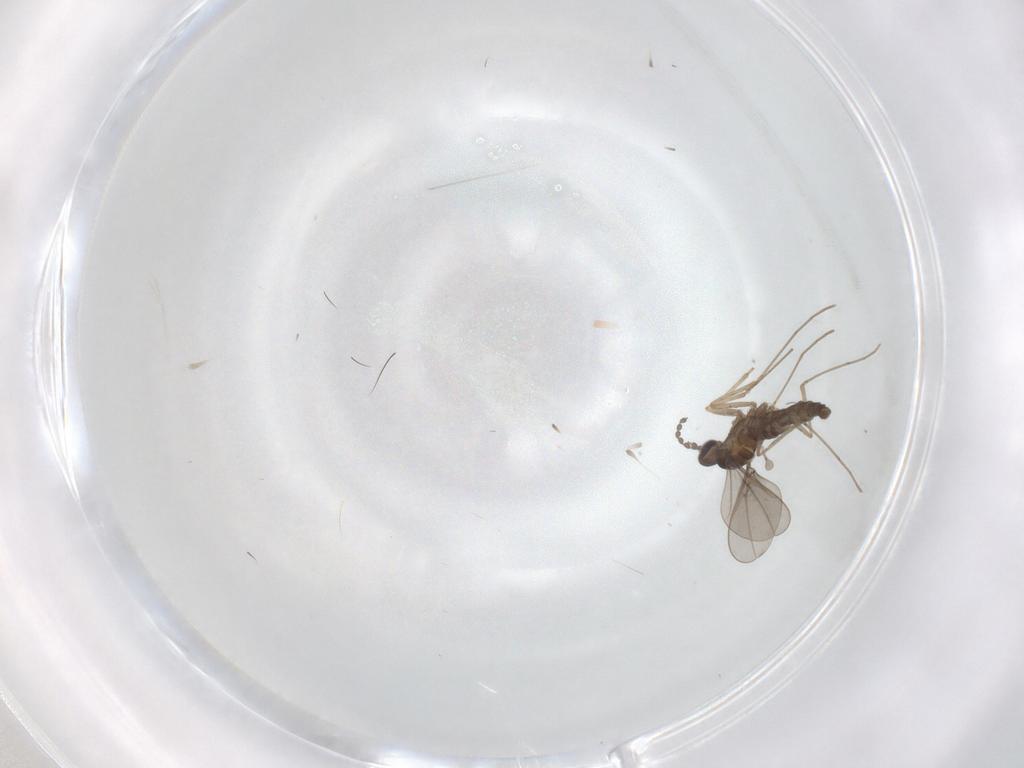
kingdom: Animalia
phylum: Arthropoda
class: Insecta
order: Diptera
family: Cecidomyiidae
